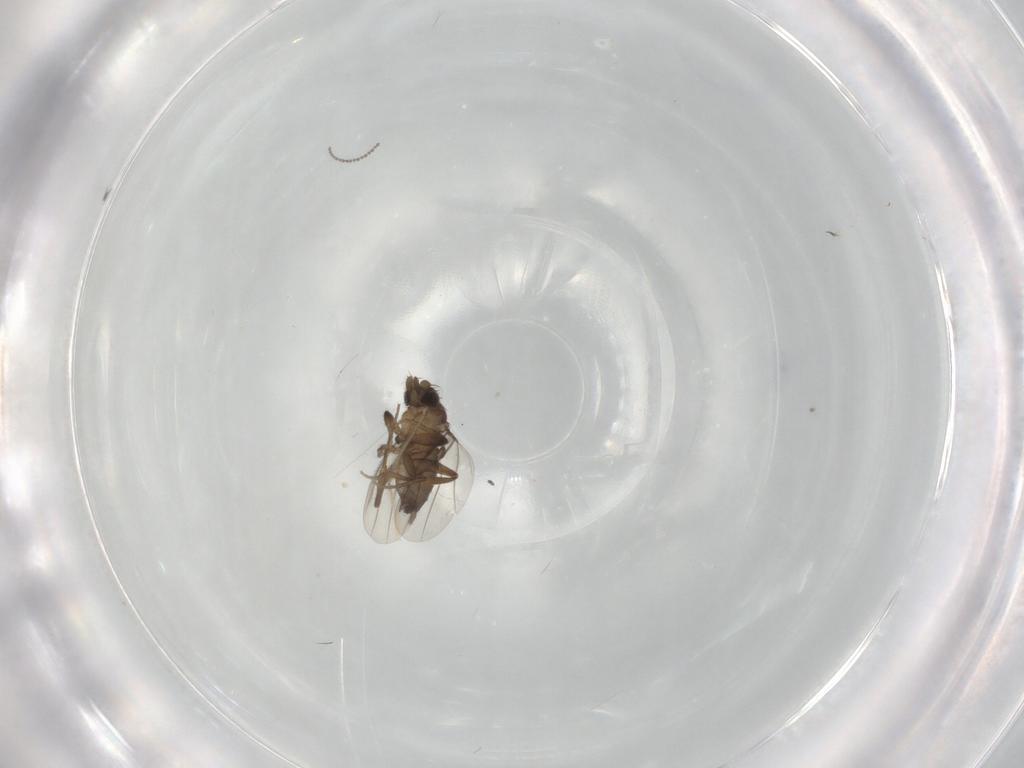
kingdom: Animalia
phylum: Arthropoda
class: Insecta
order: Diptera
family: Phoridae
